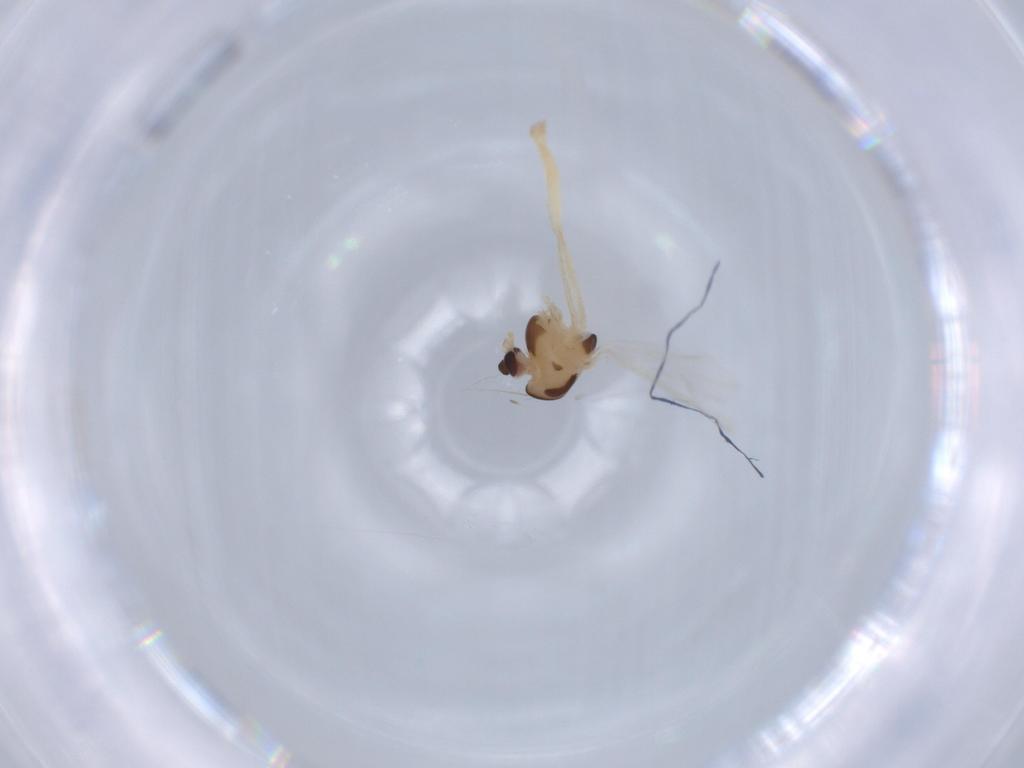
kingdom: Animalia
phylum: Arthropoda
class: Insecta
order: Diptera
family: Chironomidae
